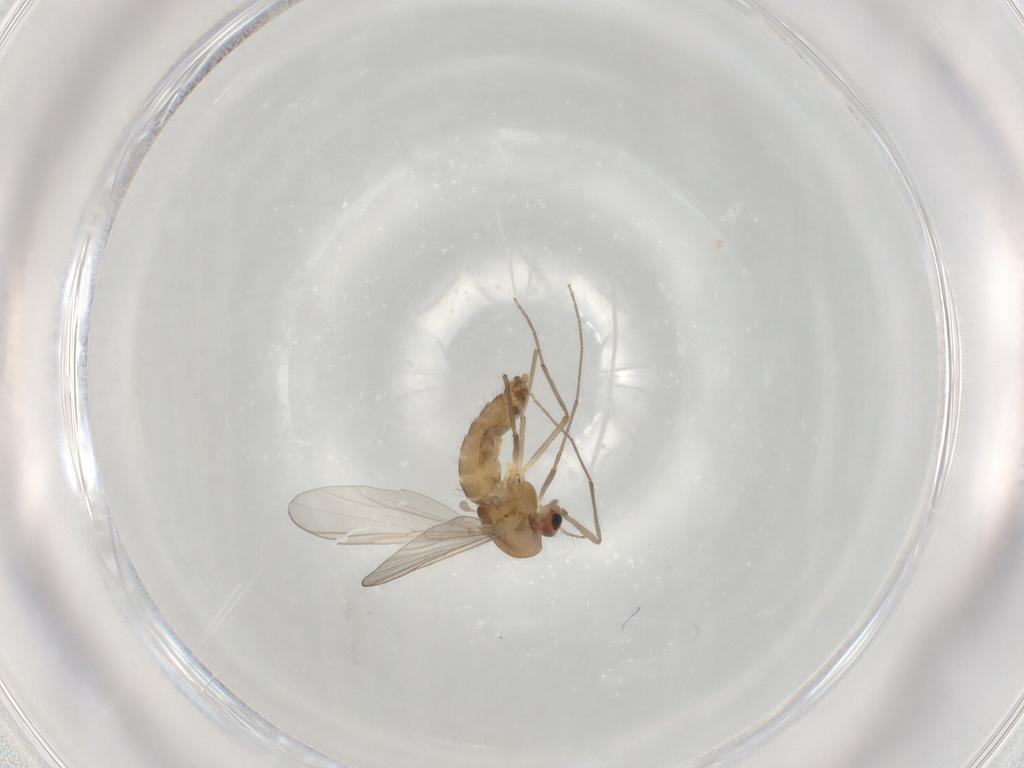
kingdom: Animalia
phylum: Arthropoda
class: Insecta
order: Diptera
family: Chironomidae
